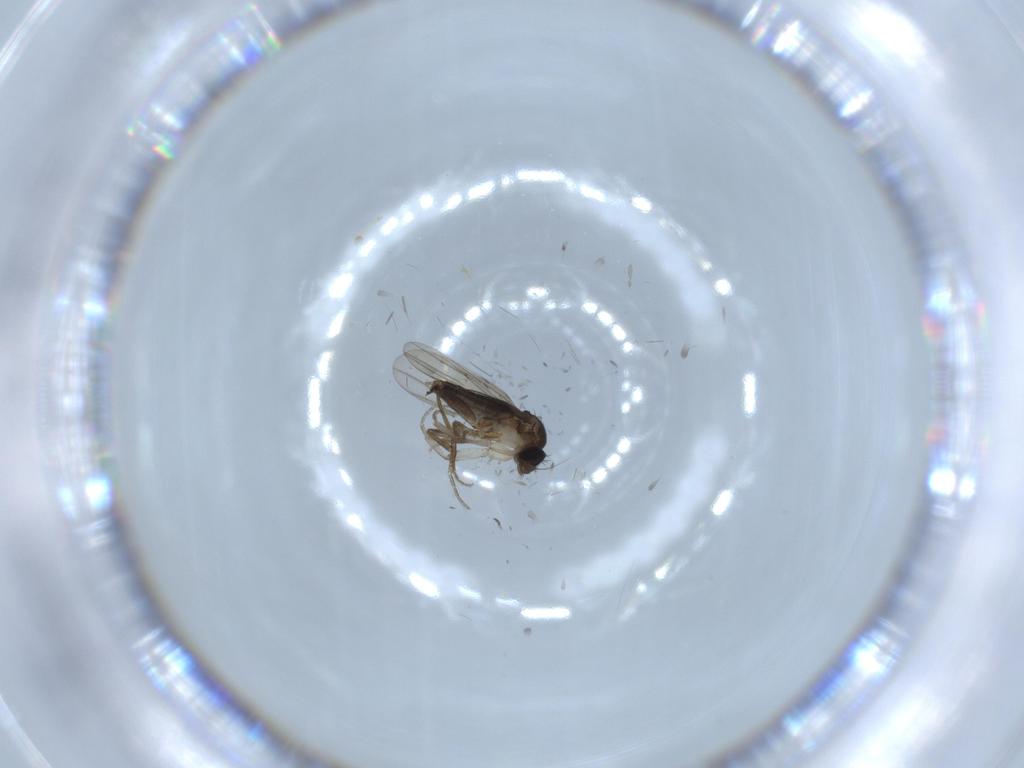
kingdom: Animalia
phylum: Arthropoda
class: Insecta
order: Diptera
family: Phoridae
